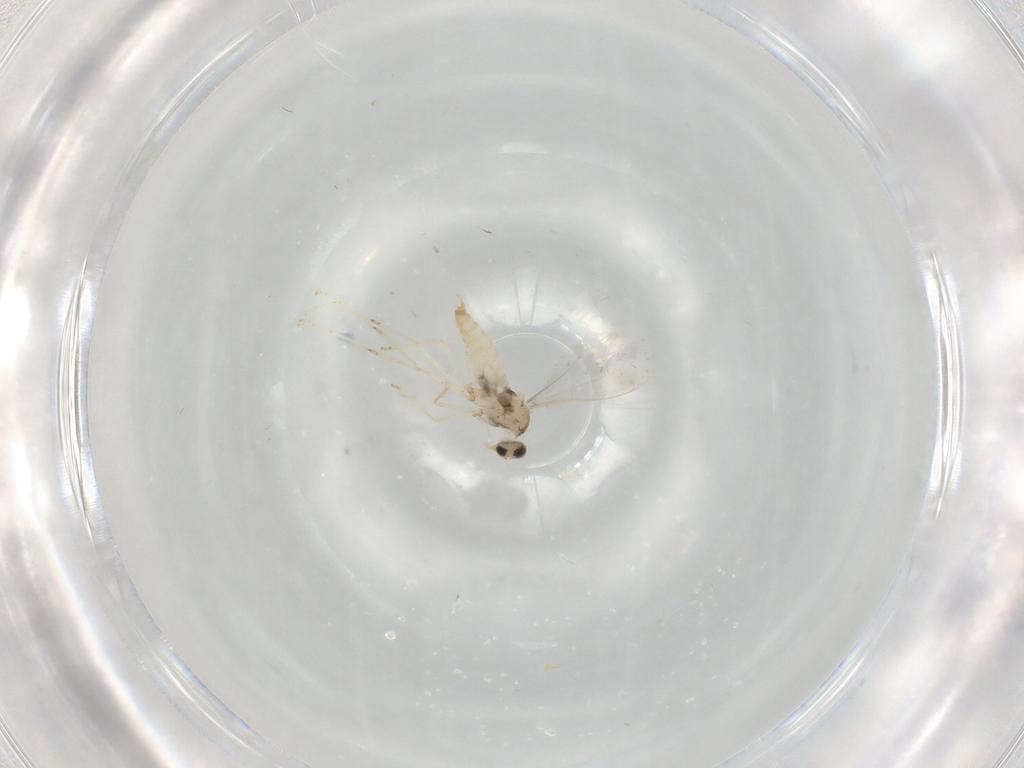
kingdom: Animalia
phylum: Arthropoda
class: Insecta
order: Diptera
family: Cecidomyiidae
